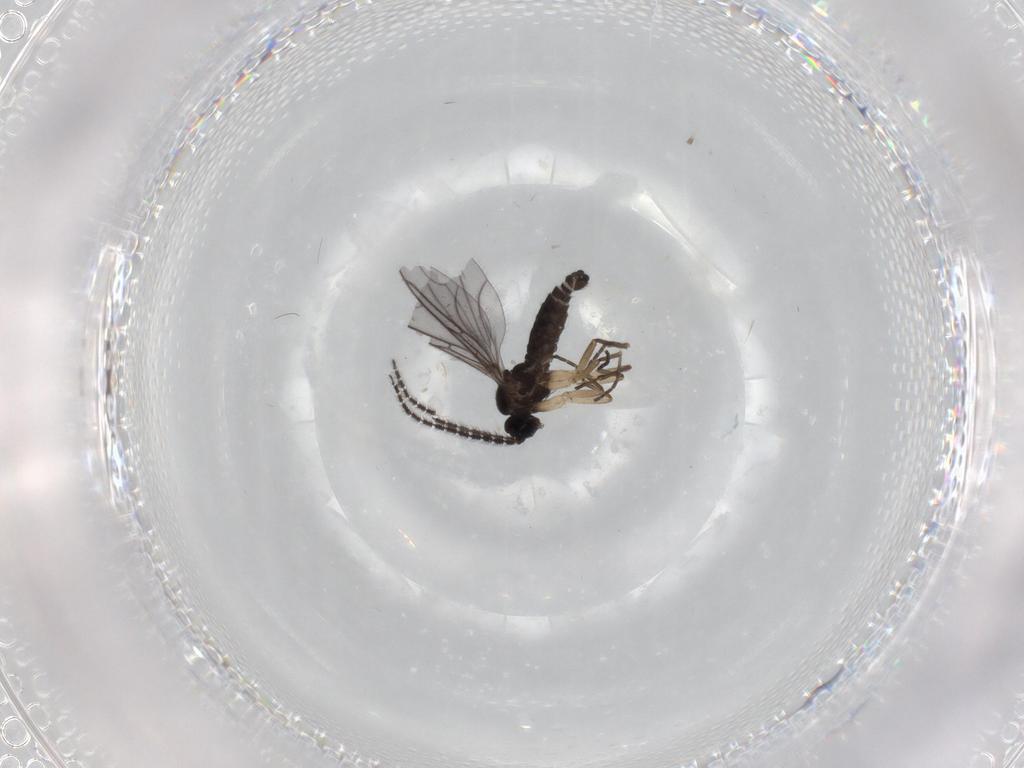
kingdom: Animalia
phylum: Arthropoda
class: Insecta
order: Diptera
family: Sciaridae
